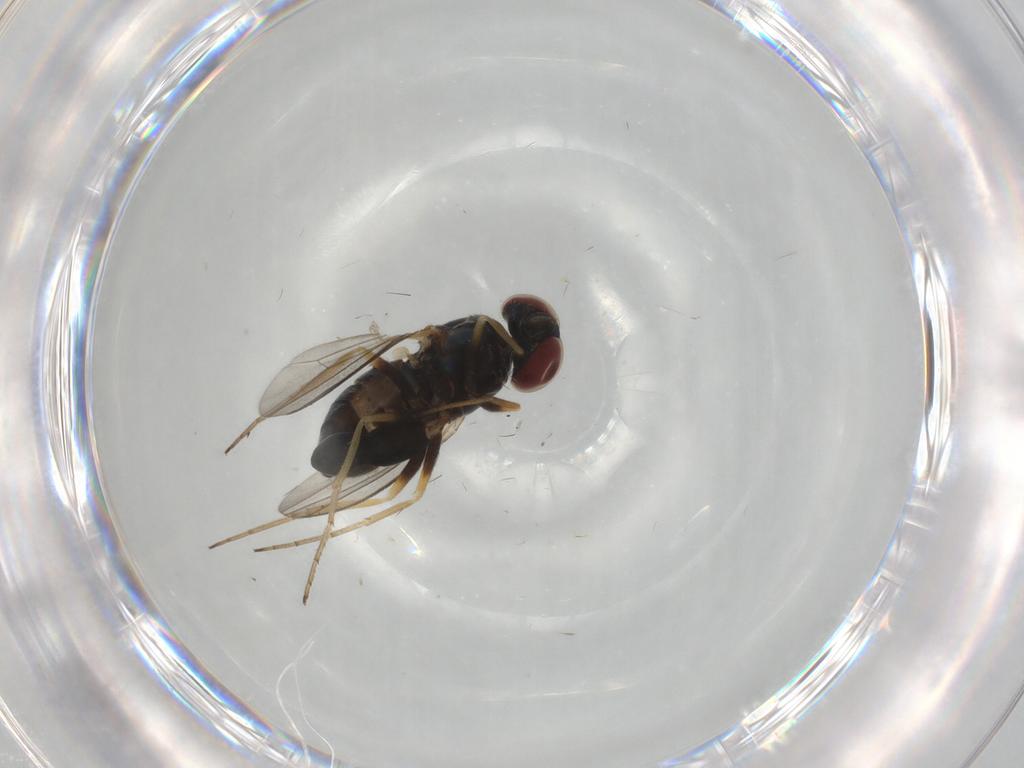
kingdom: Animalia
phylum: Arthropoda
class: Insecta
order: Diptera
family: Dolichopodidae
